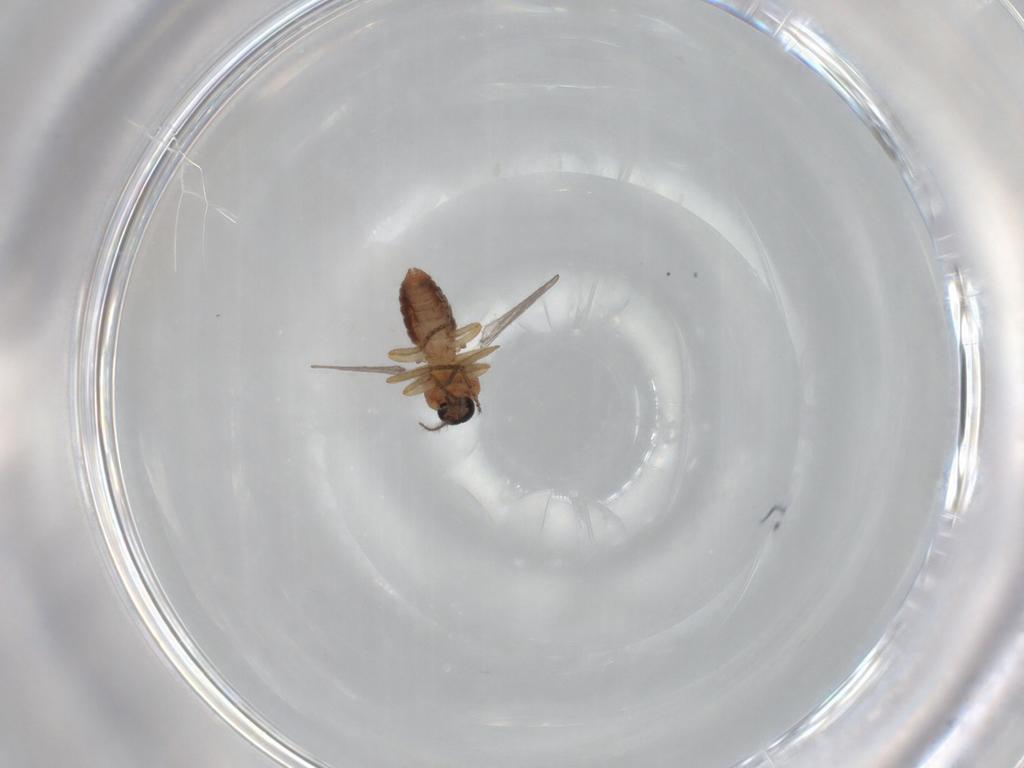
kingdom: Animalia
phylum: Arthropoda
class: Insecta
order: Diptera
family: Ceratopogonidae
